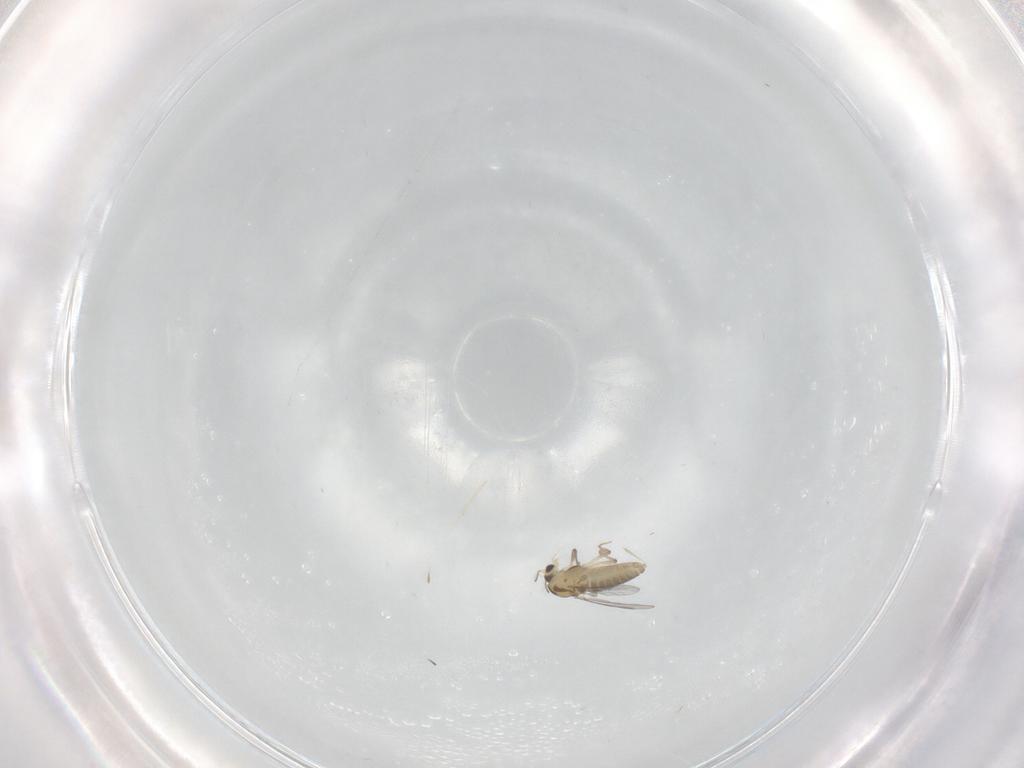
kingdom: Animalia
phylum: Arthropoda
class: Insecta
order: Diptera
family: Chironomidae
